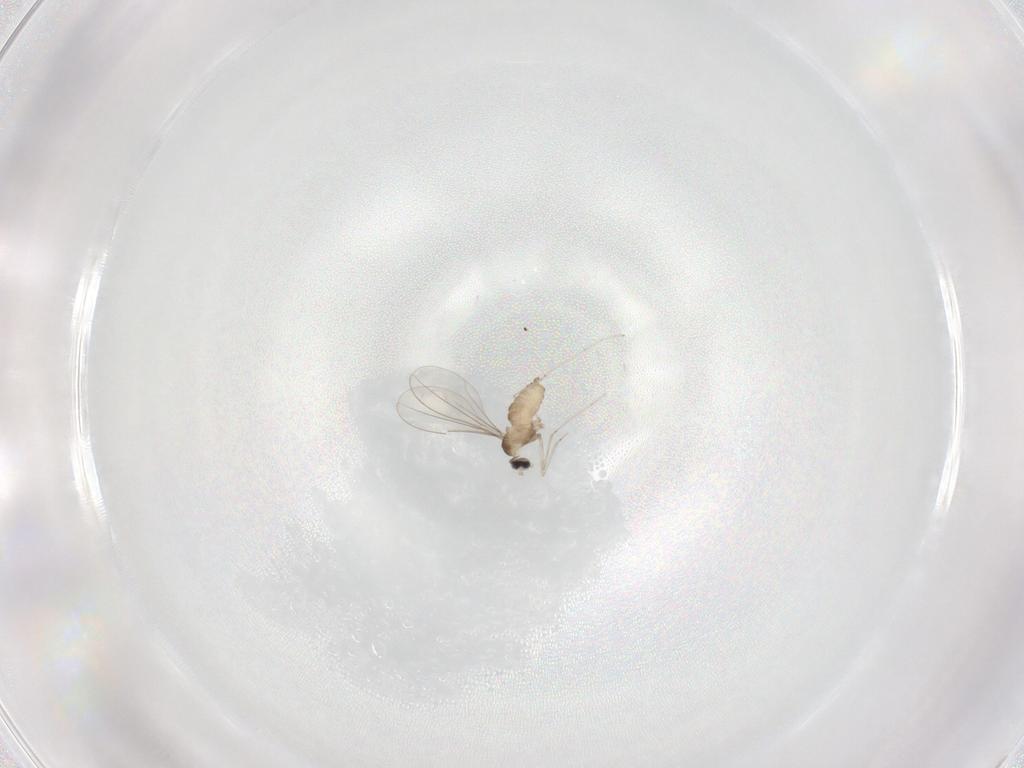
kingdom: Animalia
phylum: Arthropoda
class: Insecta
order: Diptera
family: Cecidomyiidae
